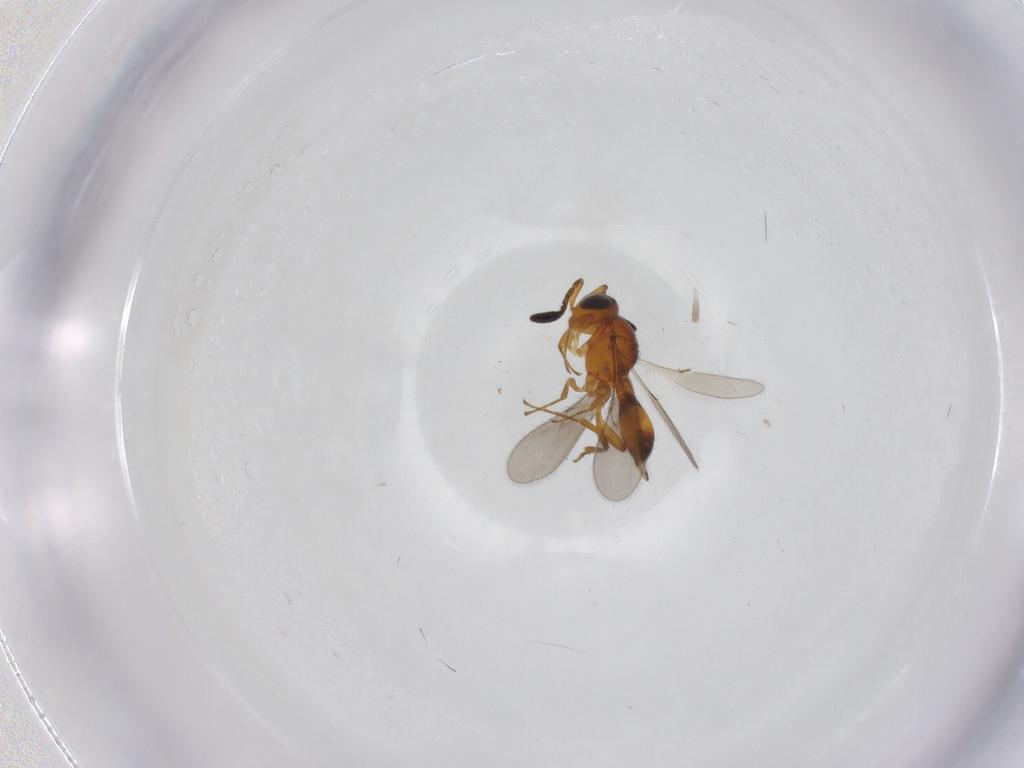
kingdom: Animalia
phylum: Arthropoda
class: Insecta
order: Hymenoptera
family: Scelionidae
